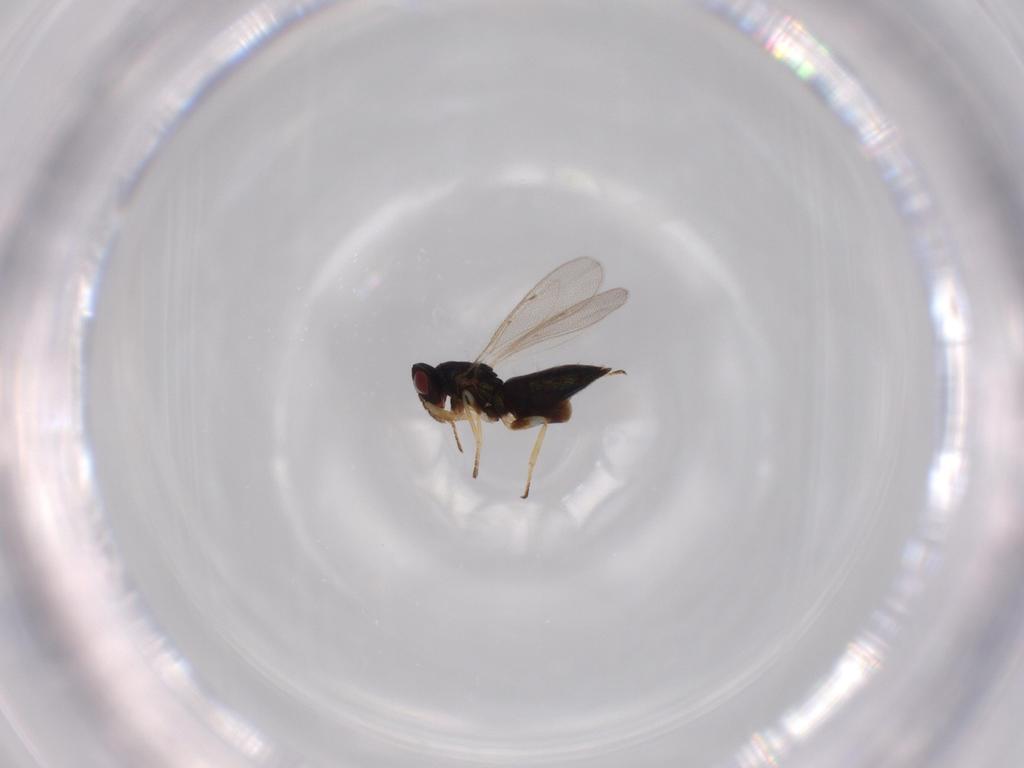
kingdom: Animalia
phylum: Arthropoda
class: Insecta
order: Hymenoptera
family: Eulophidae
